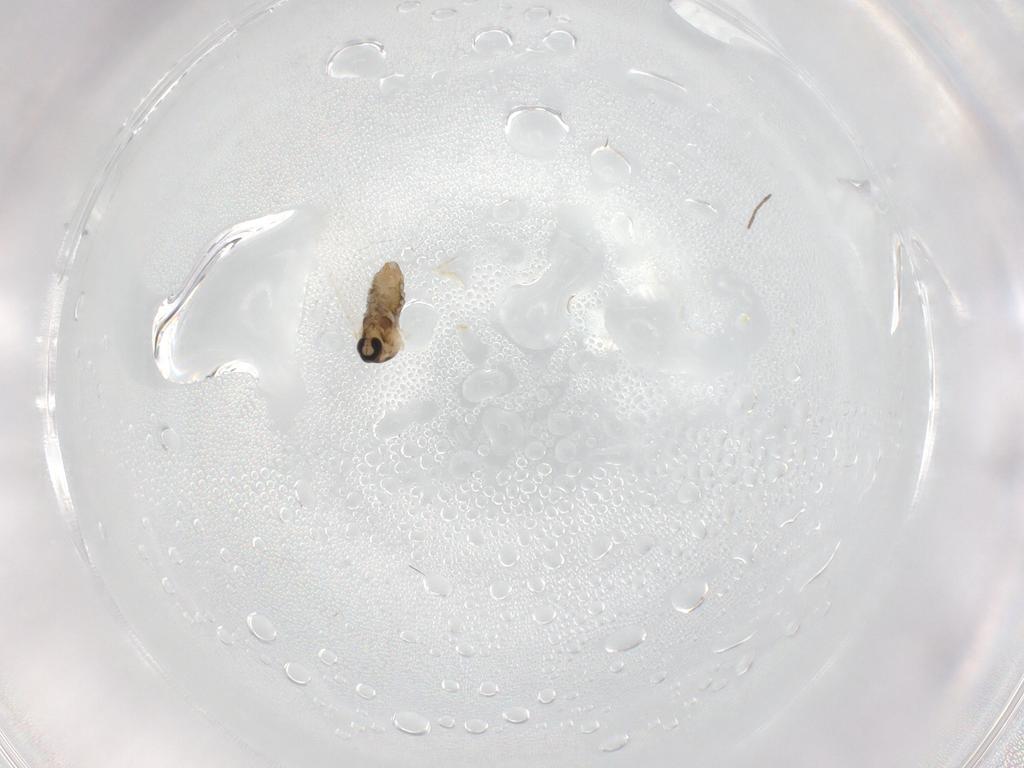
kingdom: Animalia
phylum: Arthropoda
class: Insecta
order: Diptera
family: Cecidomyiidae
